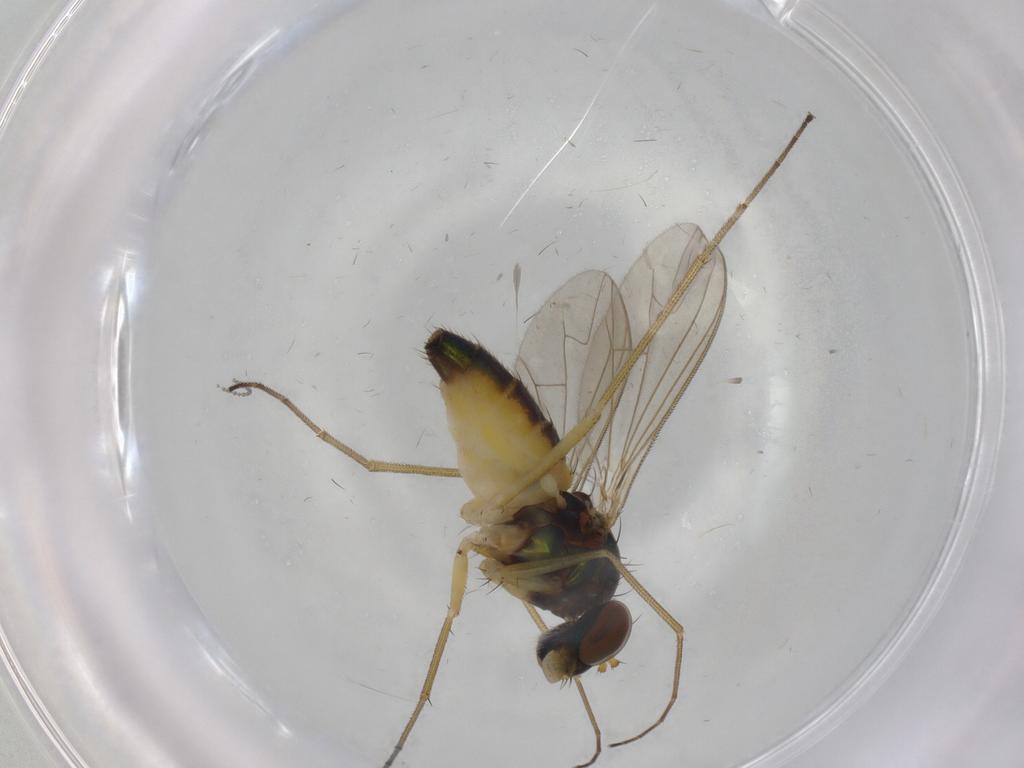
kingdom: Animalia
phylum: Arthropoda
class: Insecta
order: Diptera
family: Dolichopodidae
